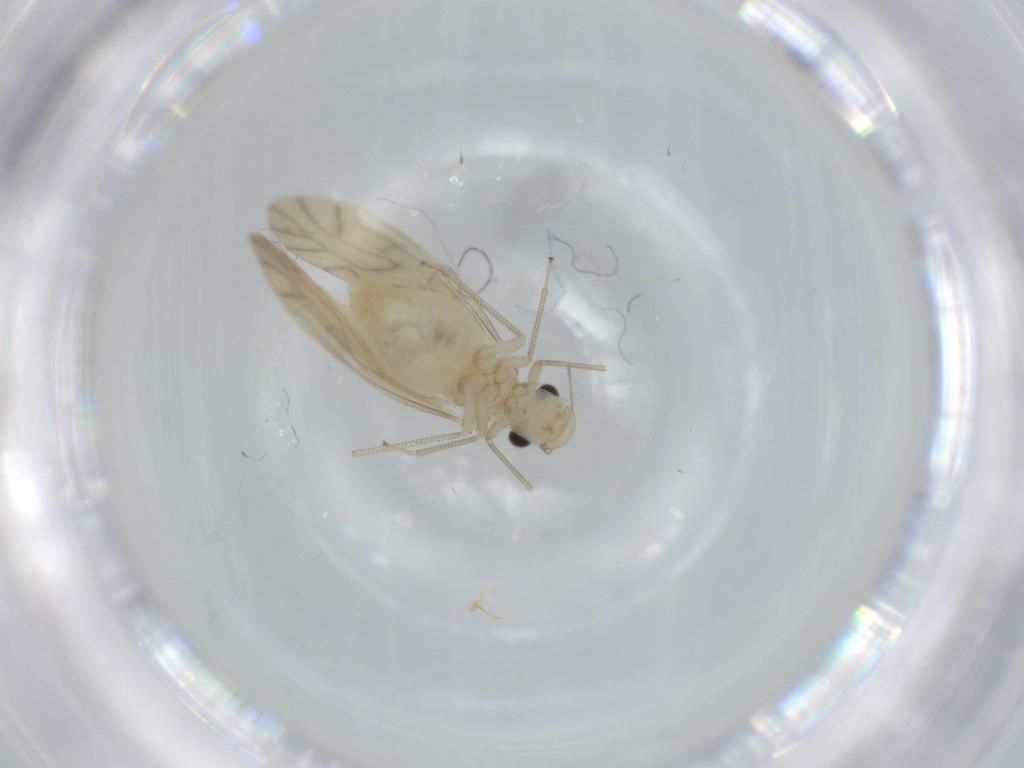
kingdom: Animalia
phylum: Arthropoda
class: Insecta
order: Psocodea
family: Caeciliusidae
